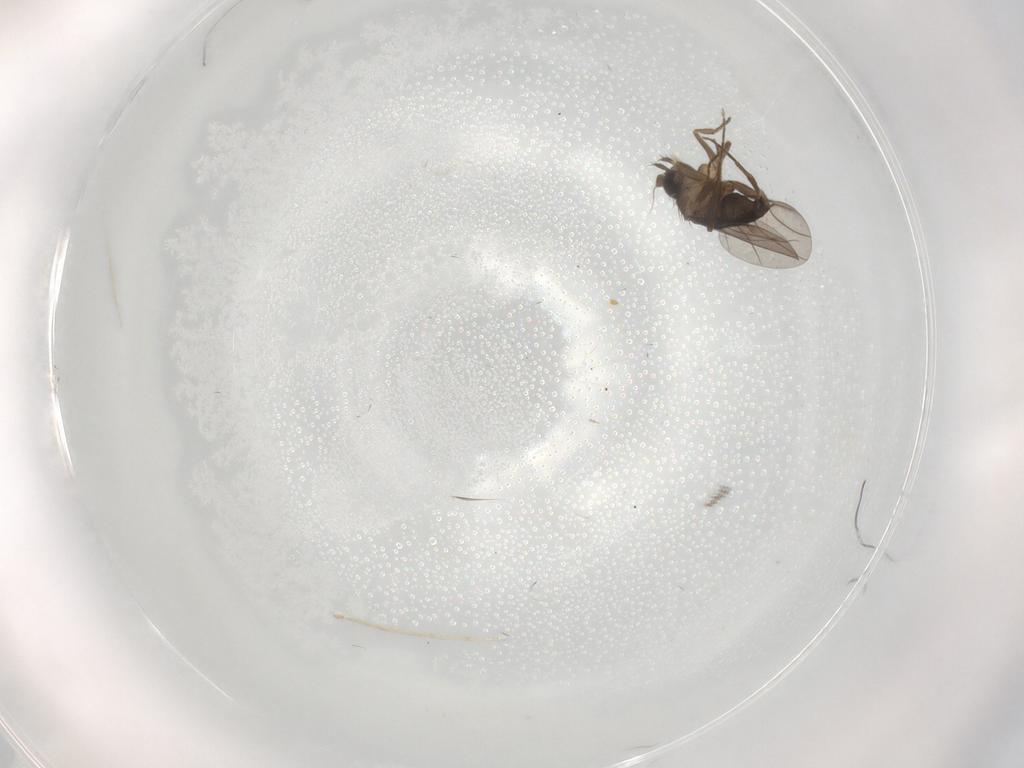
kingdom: Animalia
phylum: Arthropoda
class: Insecta
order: Diptera
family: Phoridae
